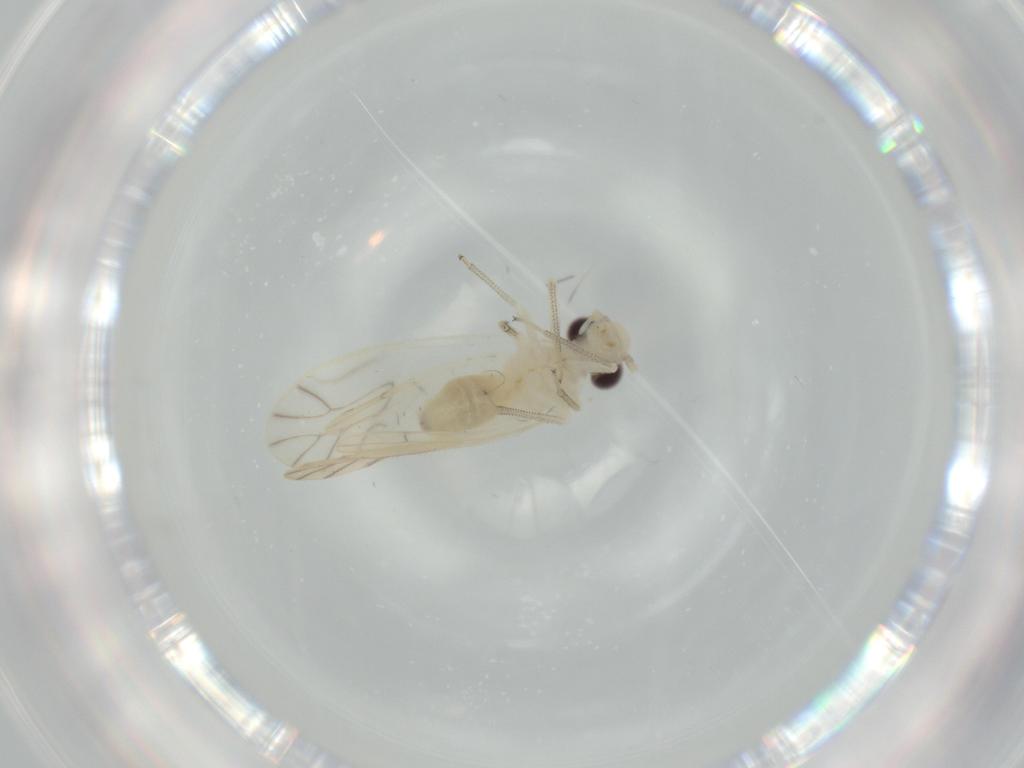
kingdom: Animalia
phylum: Arthropoda
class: Insecta
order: Psocodea
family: Caeciliusidae
